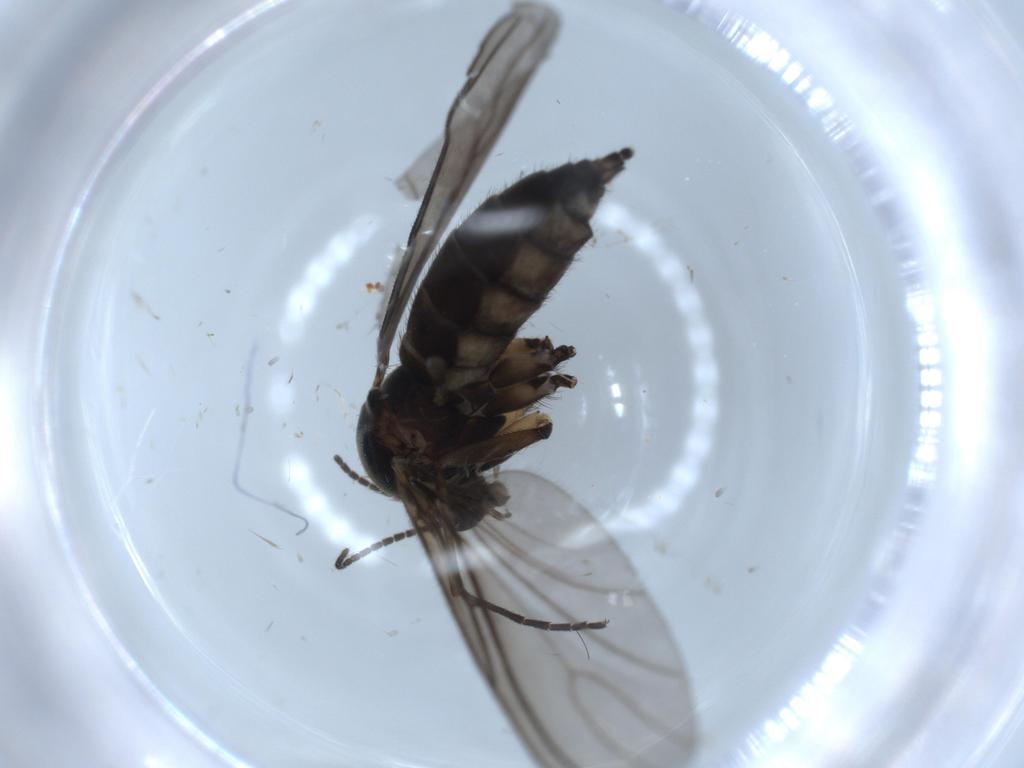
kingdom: Animalia
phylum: Arthropoda
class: Insecta
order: Diptera
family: Sciaridae
